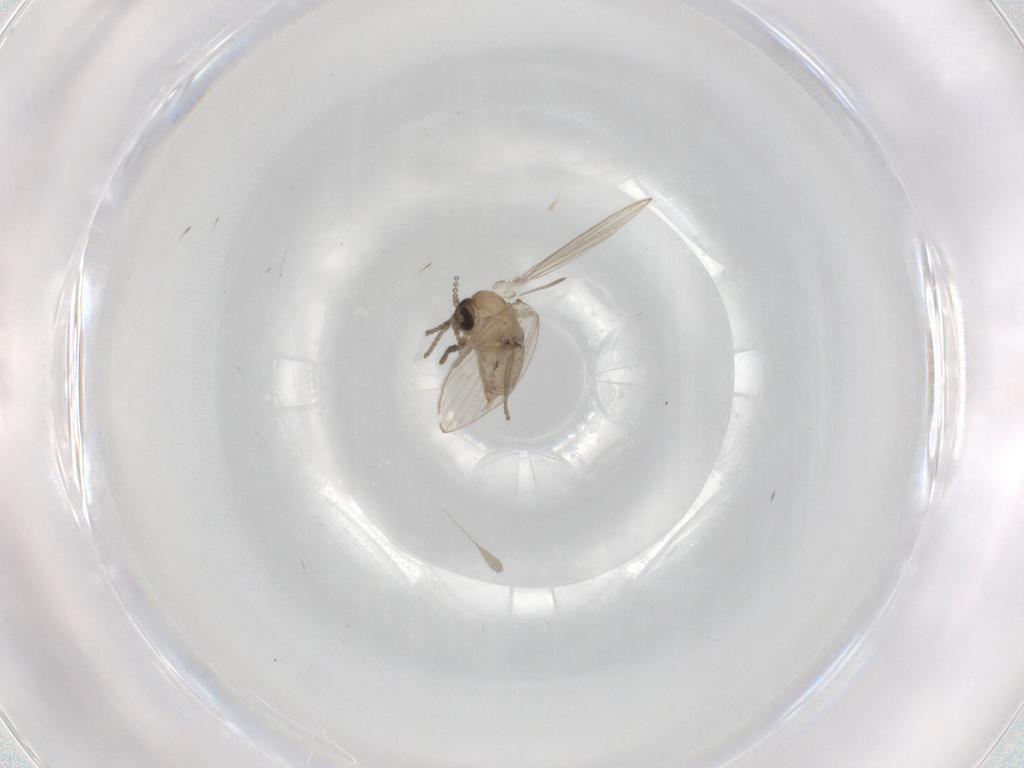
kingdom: Animalia
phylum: Arthropoda
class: Insecta
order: Diptera
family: Psychodidae
